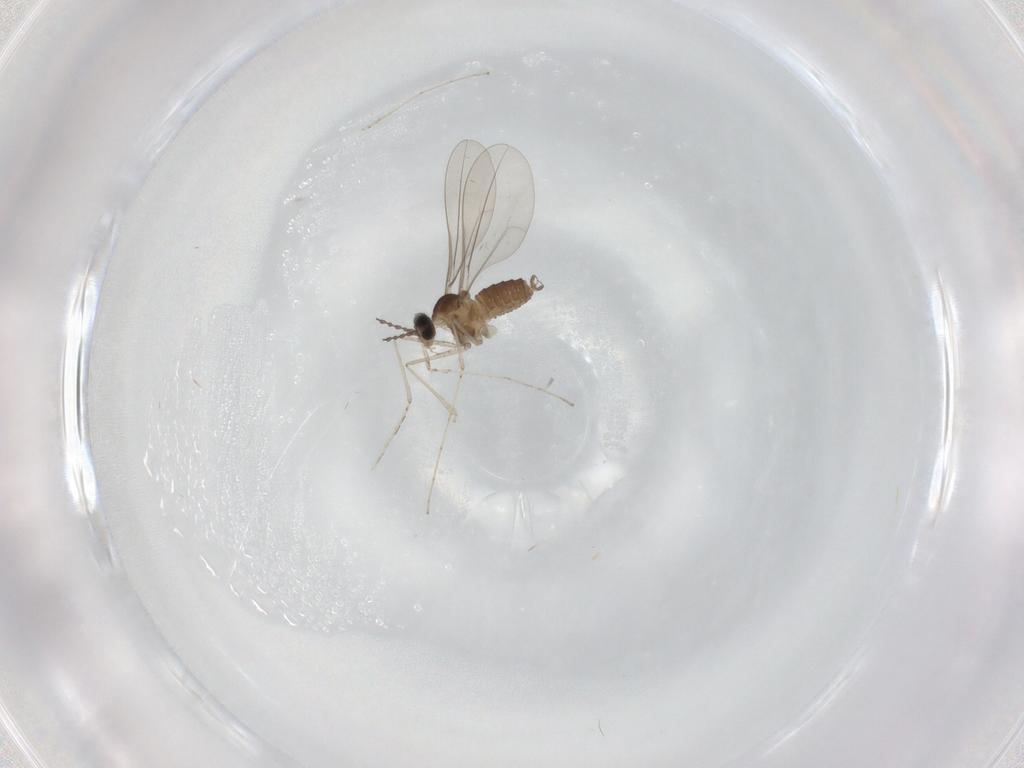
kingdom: Animalia
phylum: Arthropoda
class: Insecta
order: Diptera
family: Cecidomyiidae
